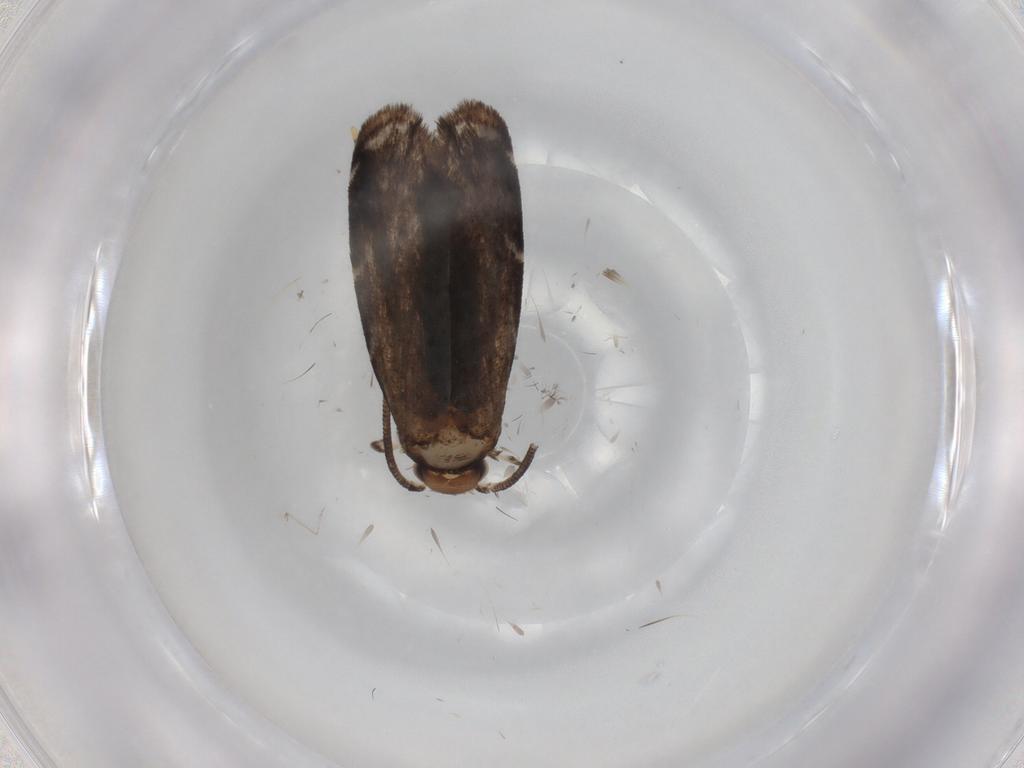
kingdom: Animalia
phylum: Arthropoda
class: Insecta
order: Lepidoptera
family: Dryadaulidae
